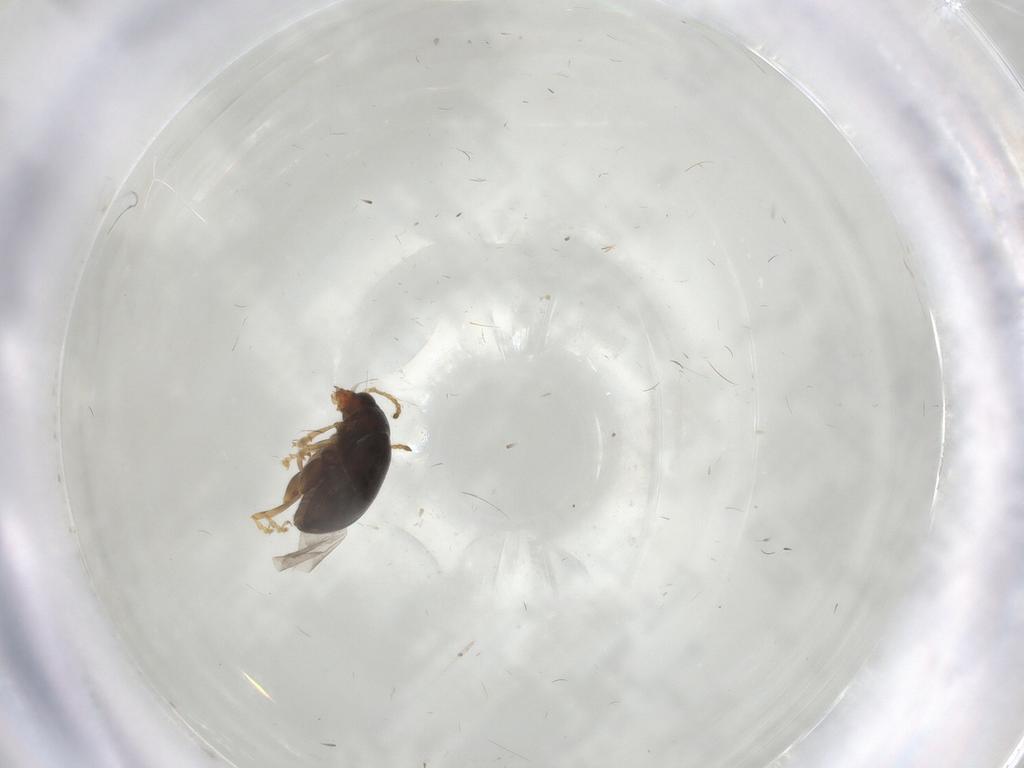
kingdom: Animalia
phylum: Arthropoda
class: Insecta
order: Coleoptera
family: Chrysomelidae
